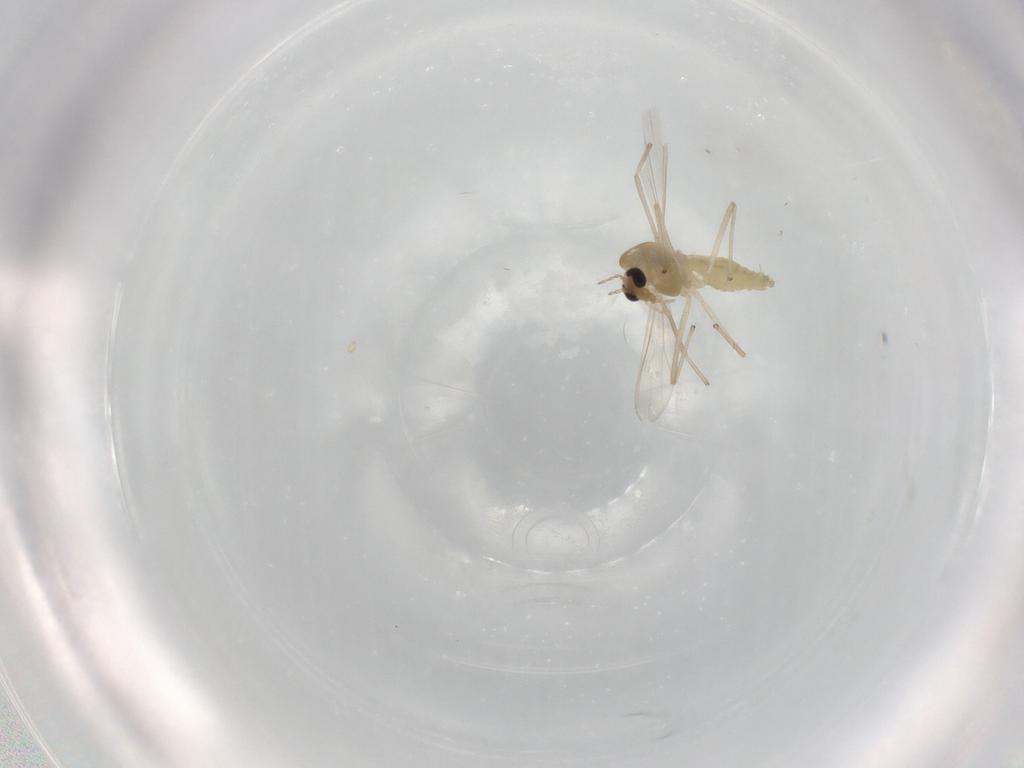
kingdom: Animalia
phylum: Arthropoda
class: Insecta
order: Diptera
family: Chironomidae
